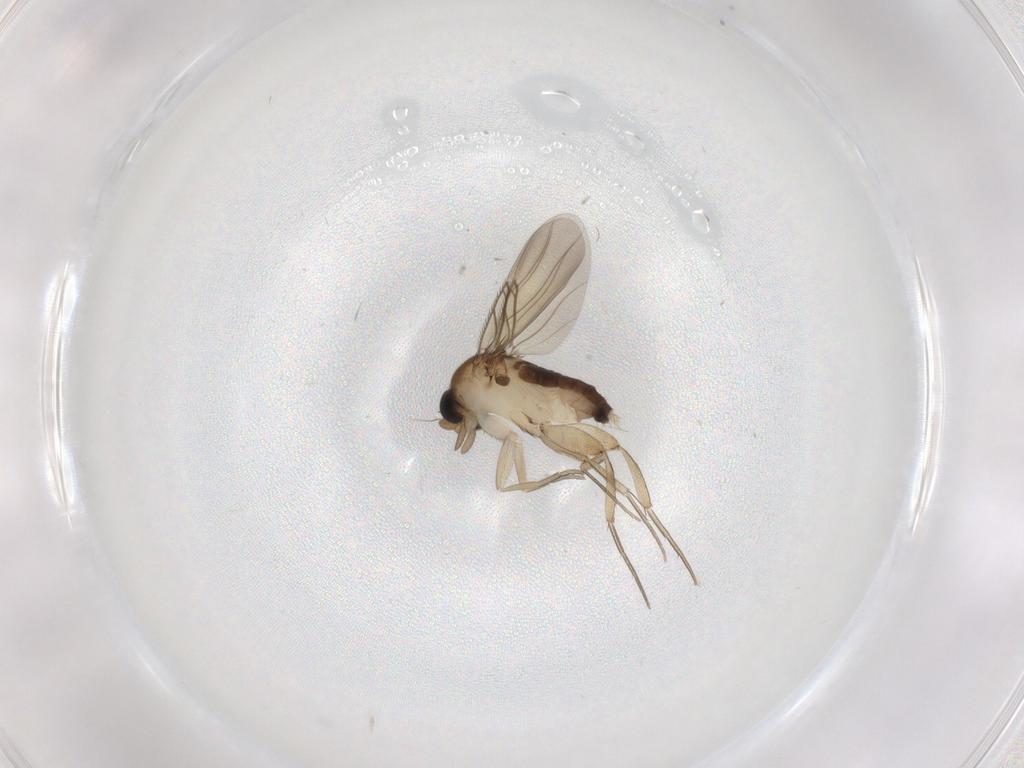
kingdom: Animalia
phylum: Arthropoda
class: Insecta
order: Diptera
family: Phoridae
